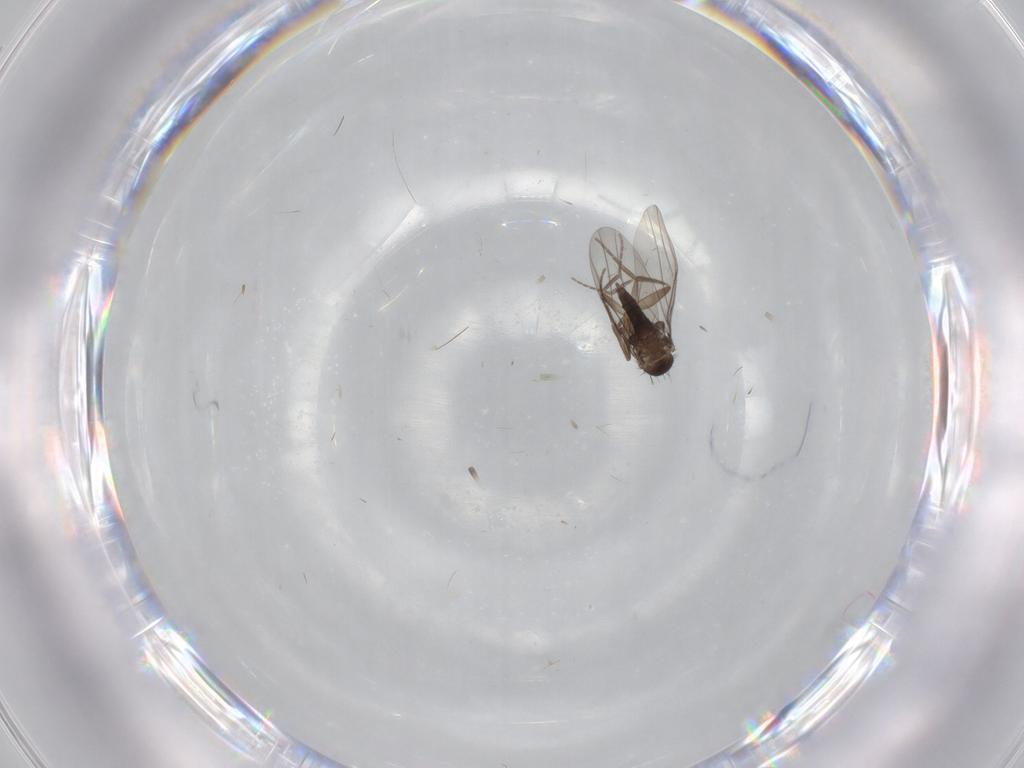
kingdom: Animalia
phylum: Arthropoda
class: Insecta
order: Diptera
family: Phoridae
